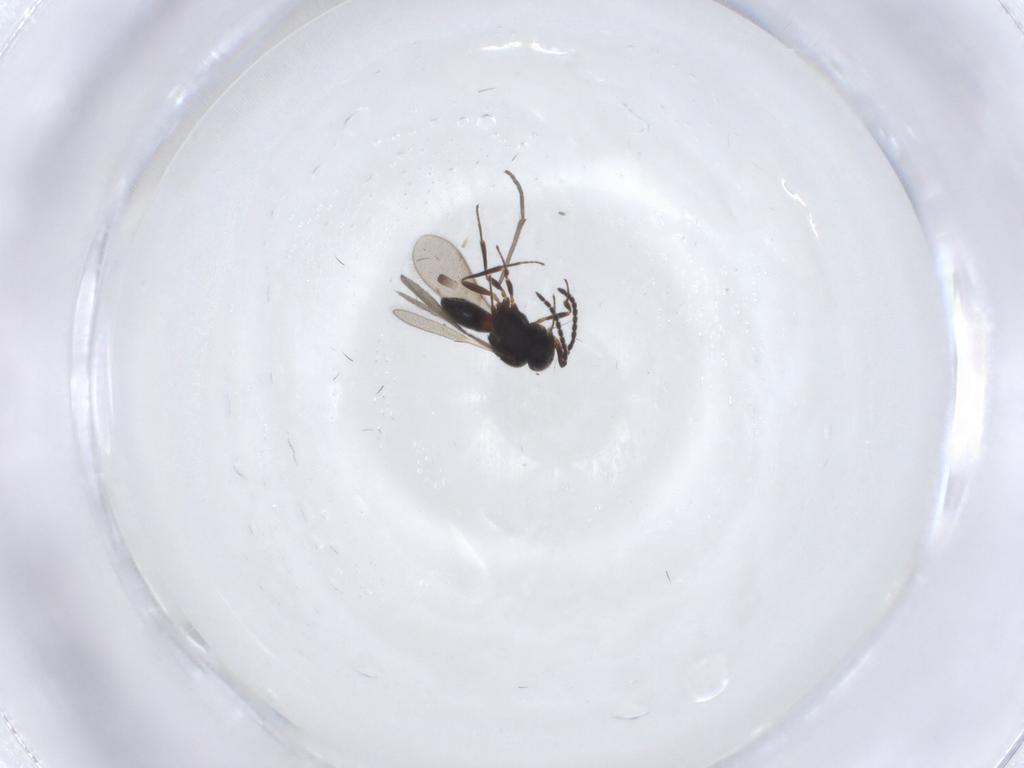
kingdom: Animalia
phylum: Arthropoda
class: Insecta
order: Hymenoptera
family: Scelionidae
